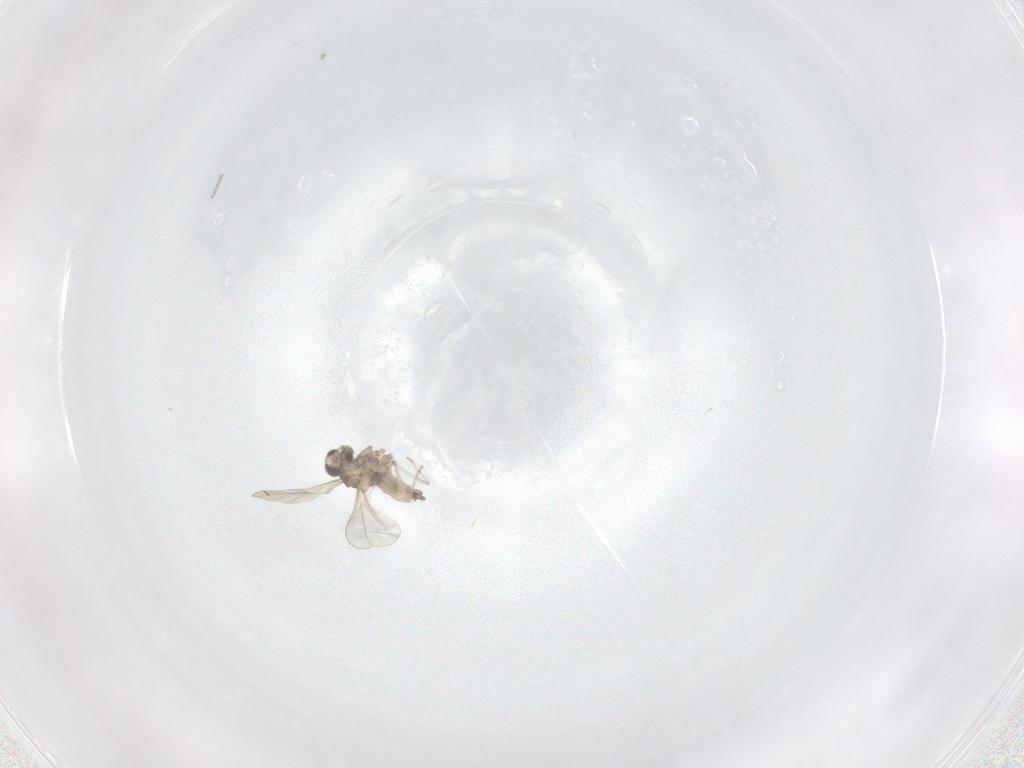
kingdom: Animalia
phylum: Arthropoda
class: Insecta
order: Diptera
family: Cecidomyiidae
